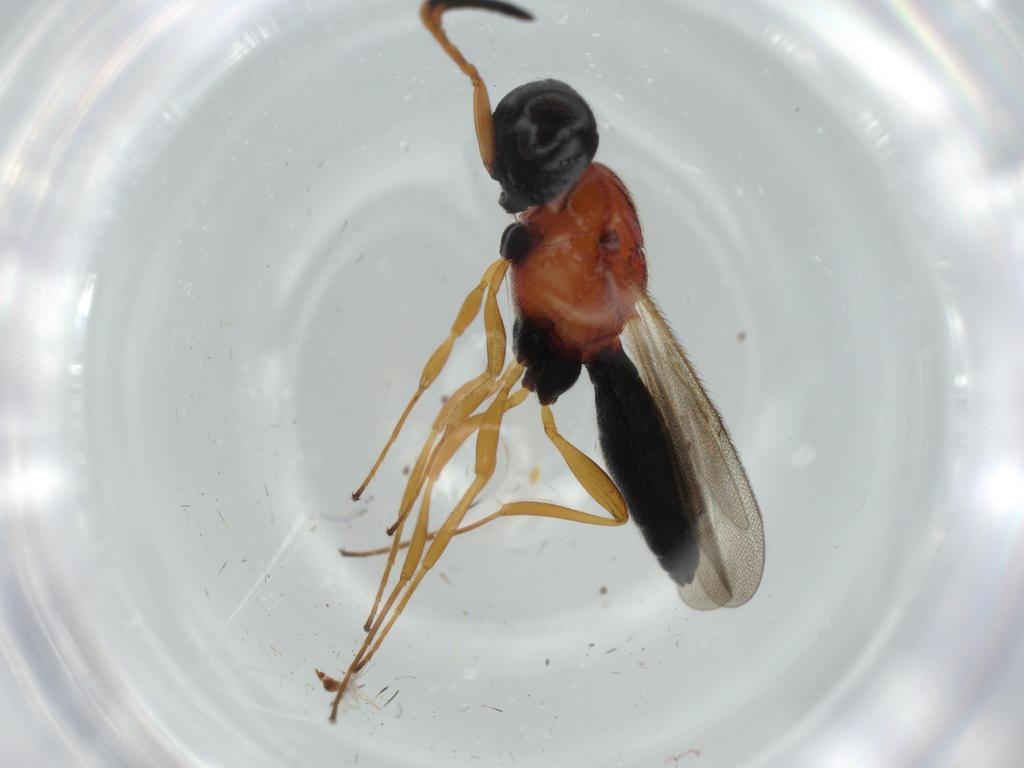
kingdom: Animalia
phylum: Arthropoda
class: Insecta
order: Hymenoptera
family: Scelionidae
